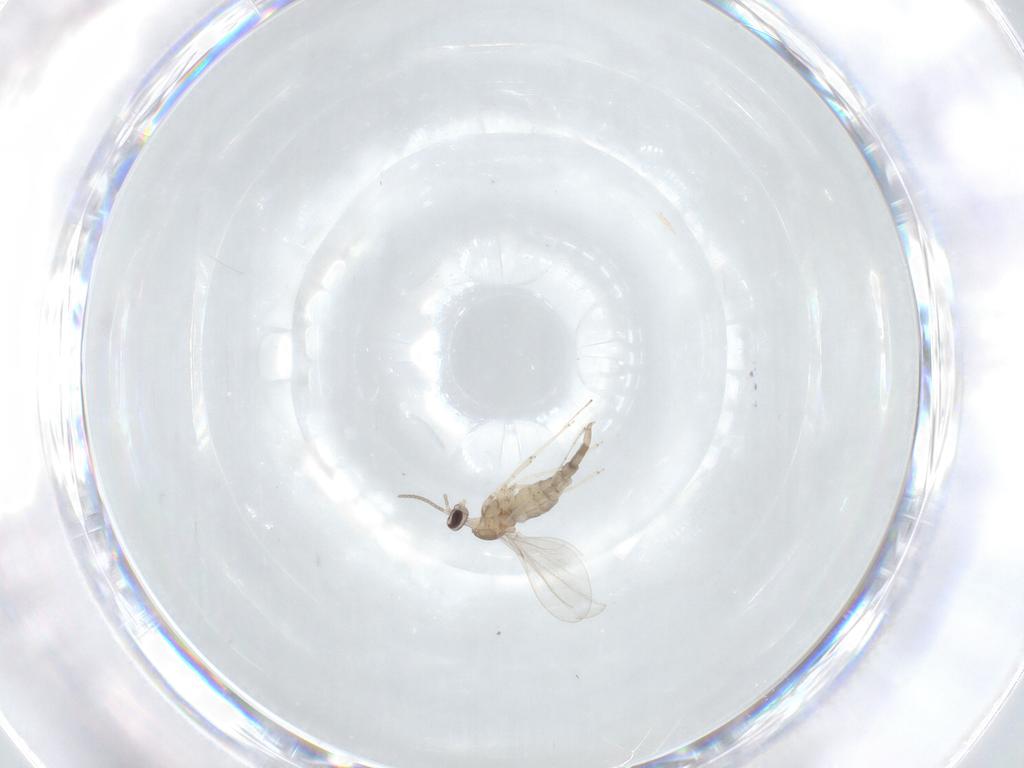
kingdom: Animalia
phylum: Arthropoda
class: Insecta
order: Diptera
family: Cecidomyiidae
